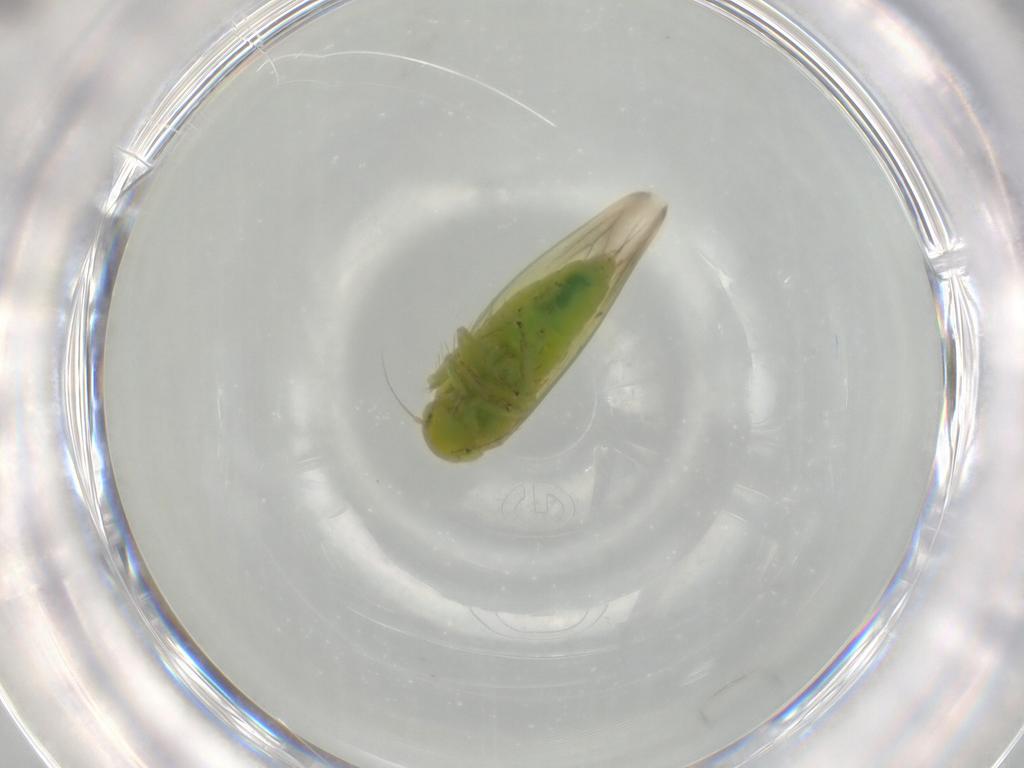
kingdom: Animalia
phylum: Arthropoda
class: Insecta
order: Hemiptera
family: Cicadellidae
